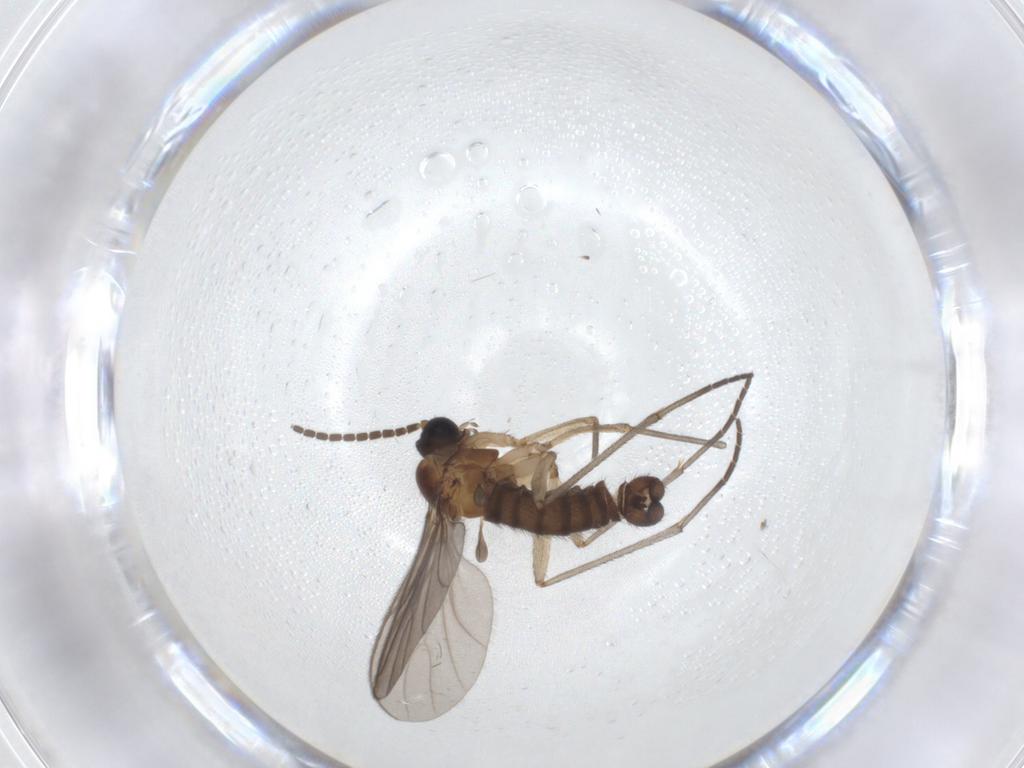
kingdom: Animalia
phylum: Arthropoda
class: Insecta
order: Diptera
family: Sciaridae
